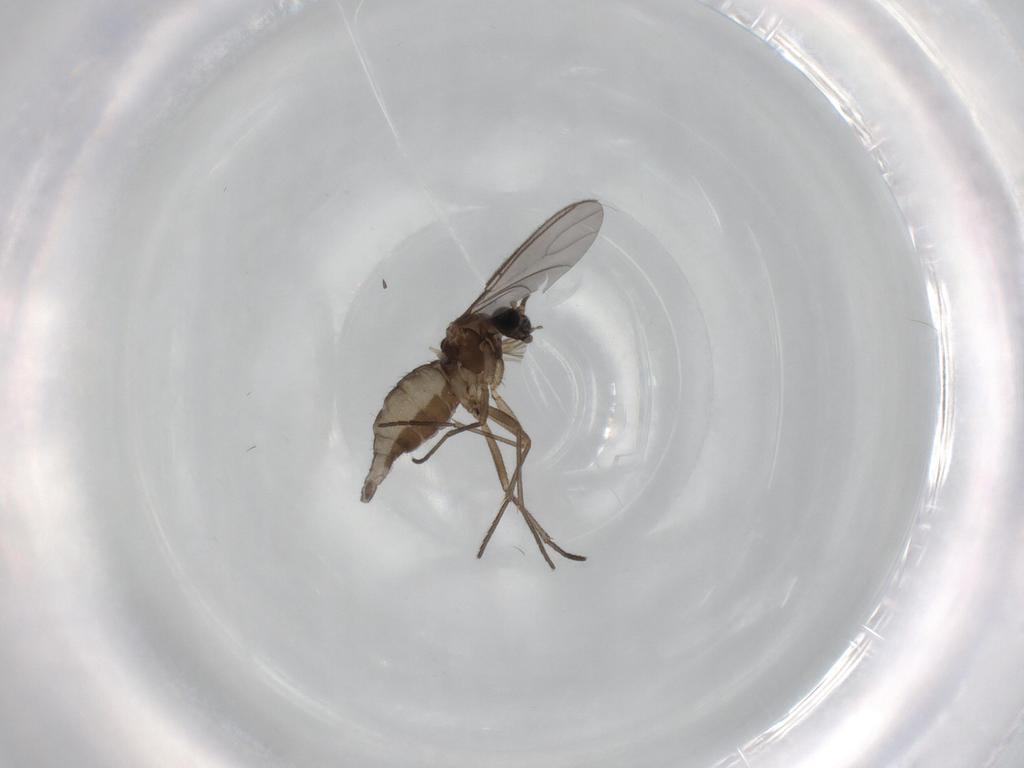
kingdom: Animalia
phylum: Arthropoda
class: Insecta
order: Diptera
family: Sciaridae
